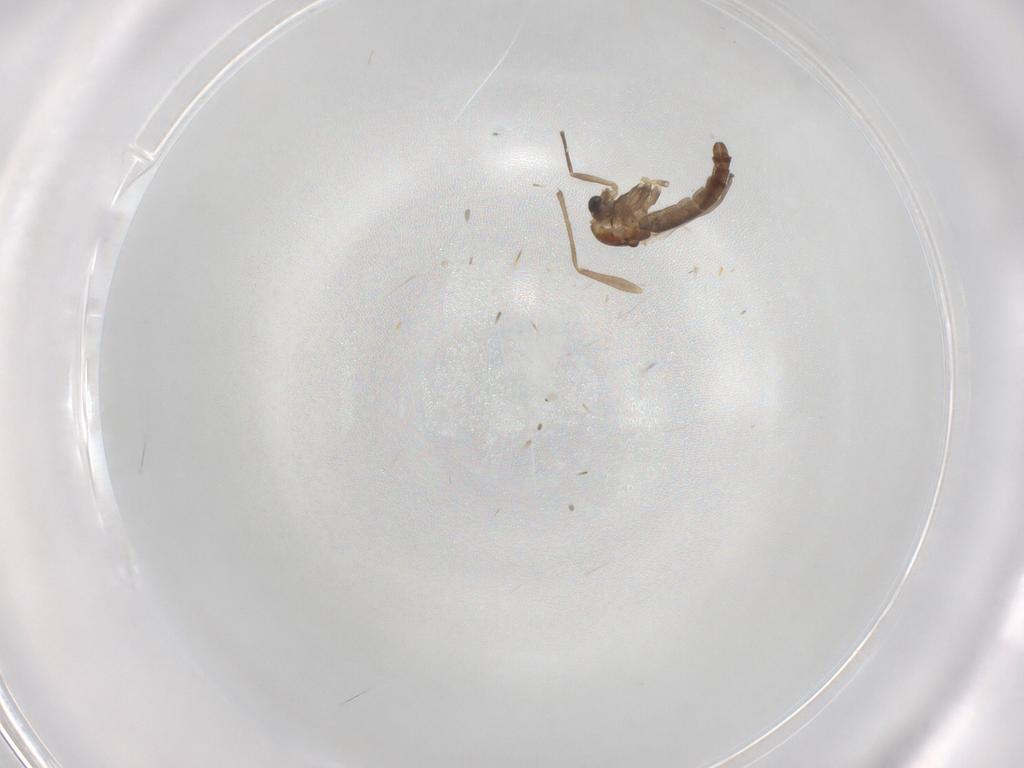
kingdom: Animalia
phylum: Arthropoda
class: Insecta
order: Diptera
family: Chironomidae
